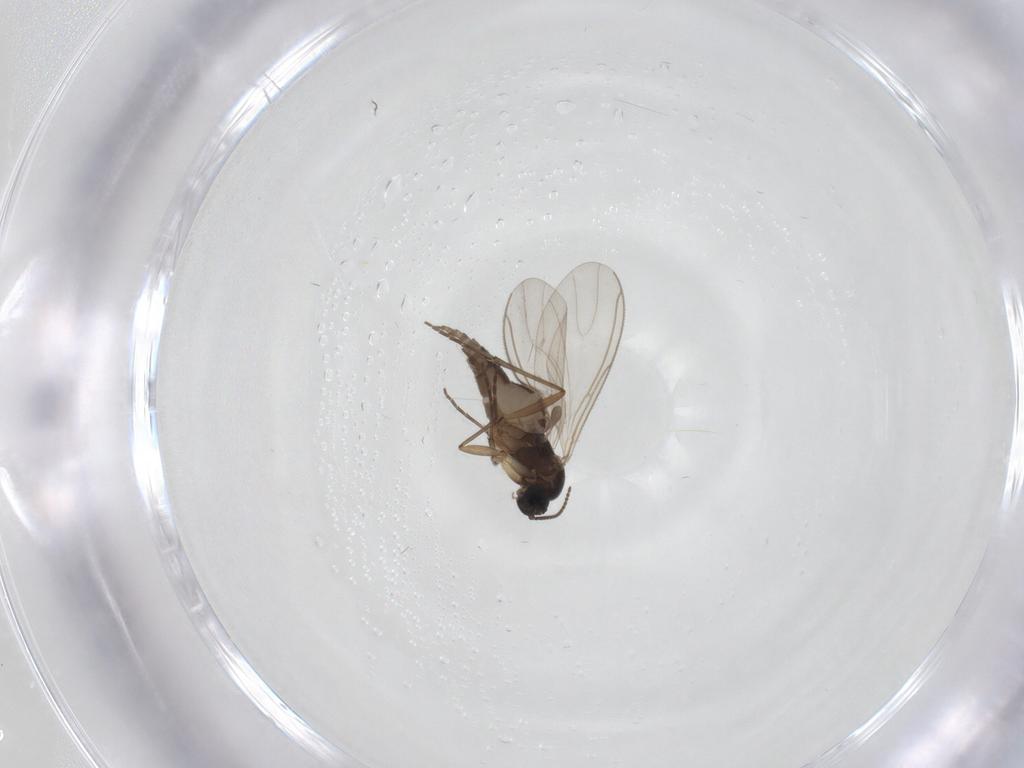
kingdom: Animalia
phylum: Arthropoda
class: Insecta
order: Diptera
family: Sciaridae
